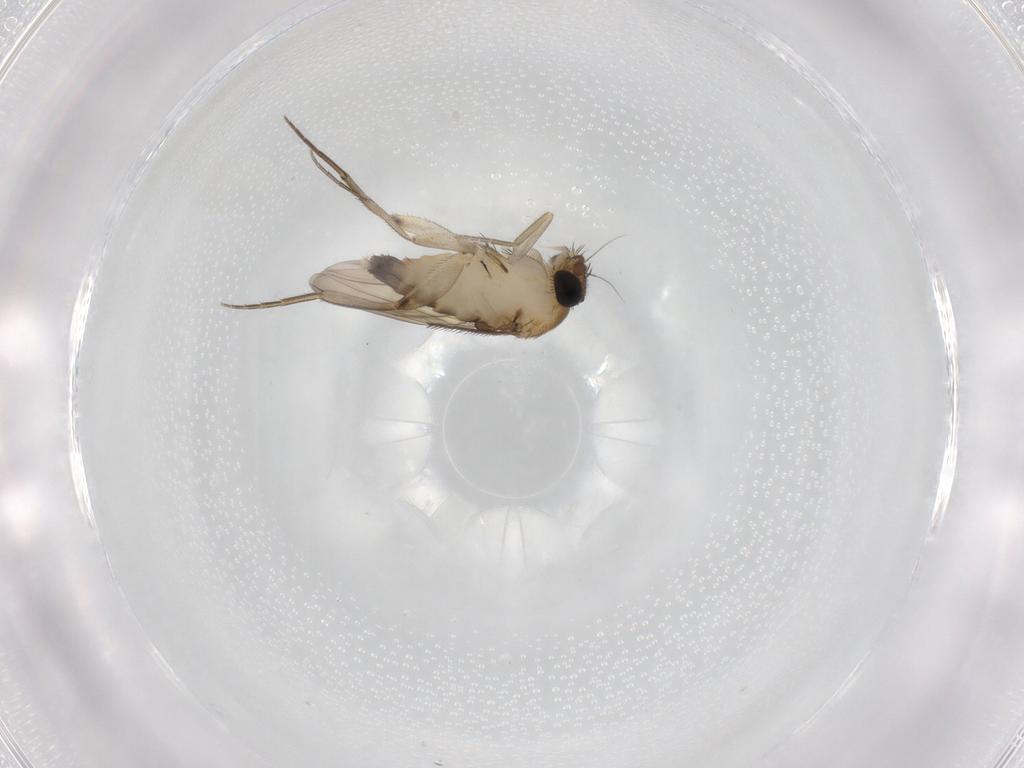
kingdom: Animalia
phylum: Arthropoda
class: Insecta
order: Diptera
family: Phoridae
